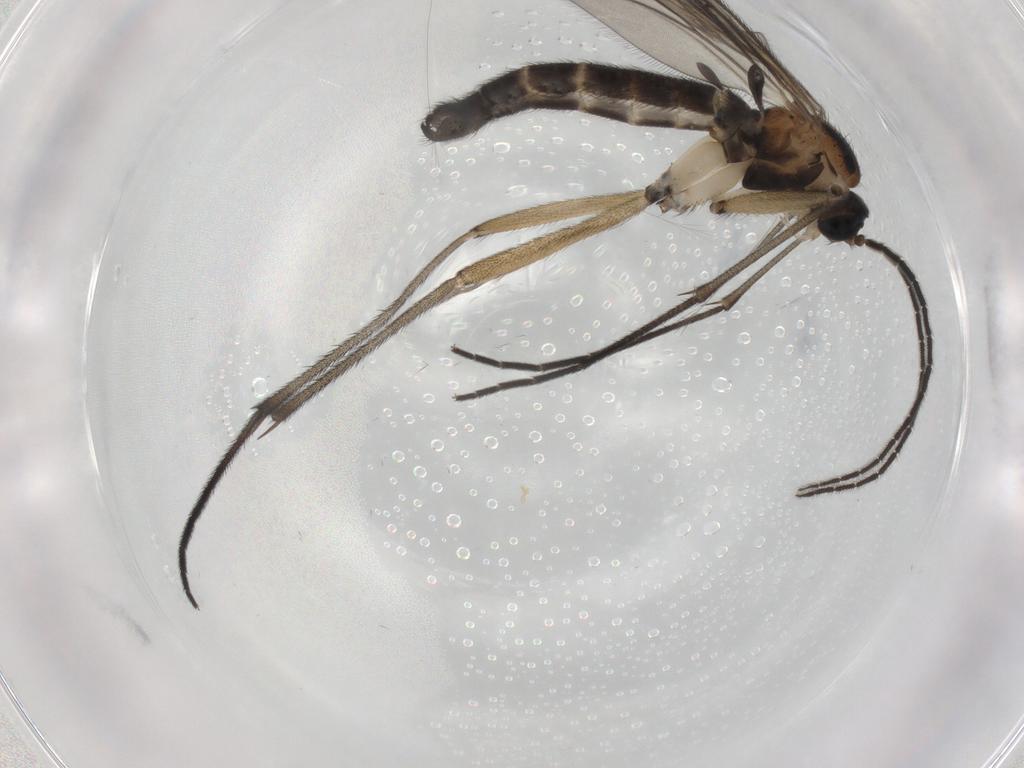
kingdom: Animalia
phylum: Arthropoda
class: Insecta
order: Diptera
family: Sciaridae
